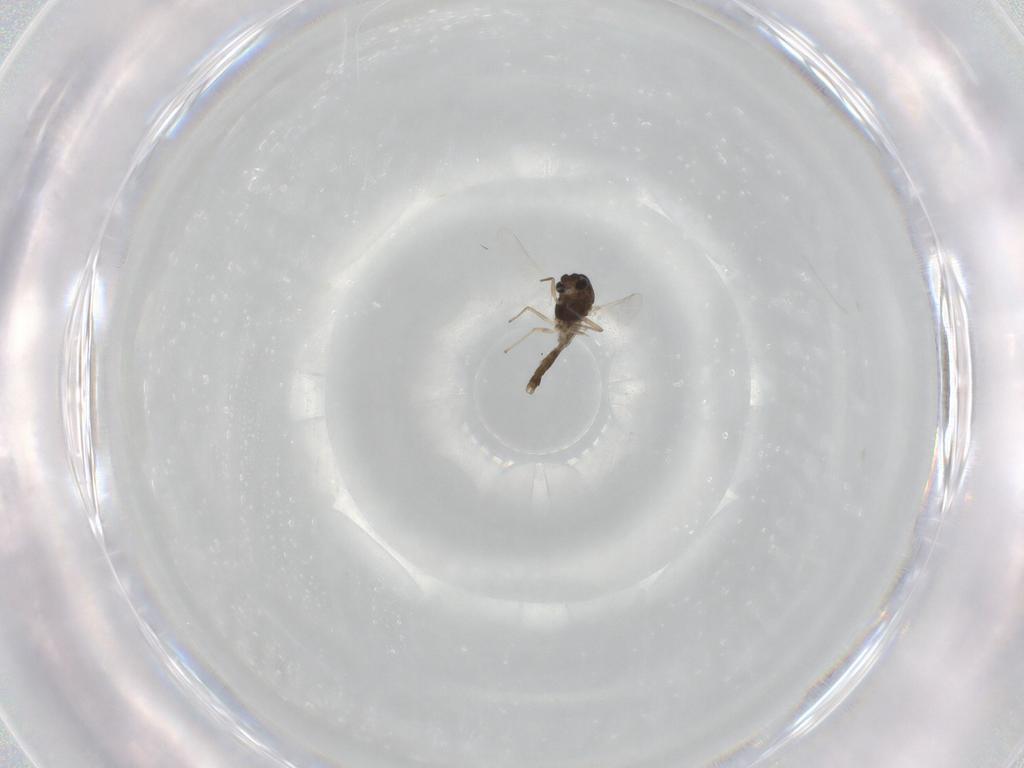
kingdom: Animalia
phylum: Arthropoda
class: Insecta
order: Diptera
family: Chironomidae
